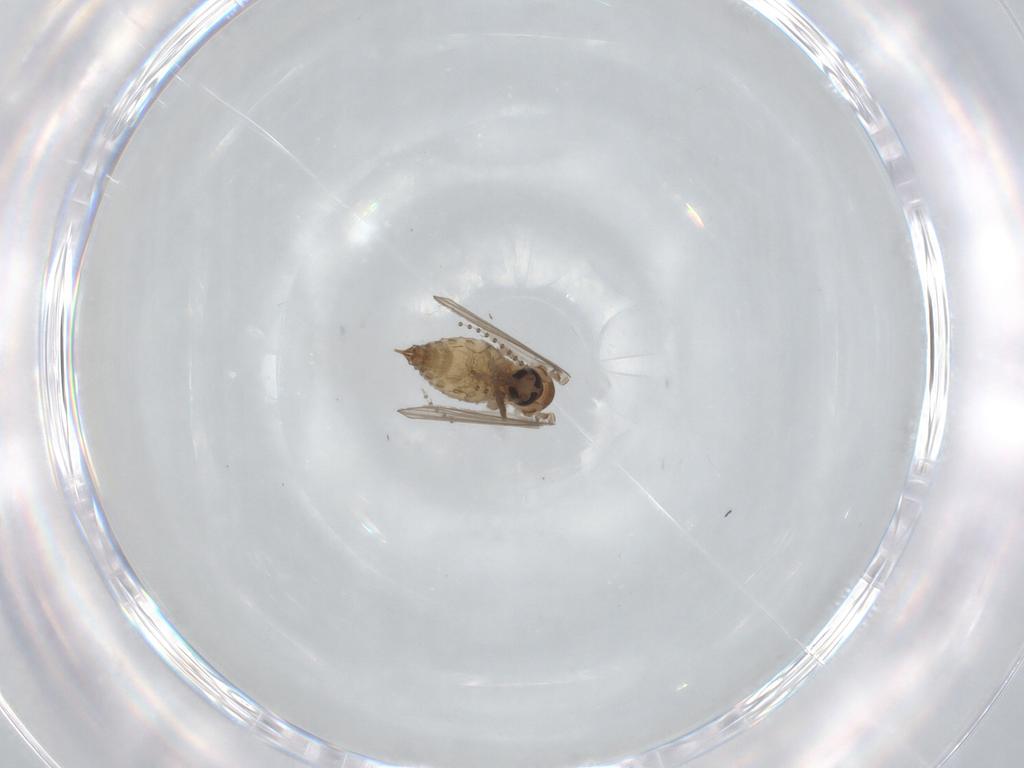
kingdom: Animalia
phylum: Arthropoda
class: Insecta
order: Diptera
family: Psychodidae
